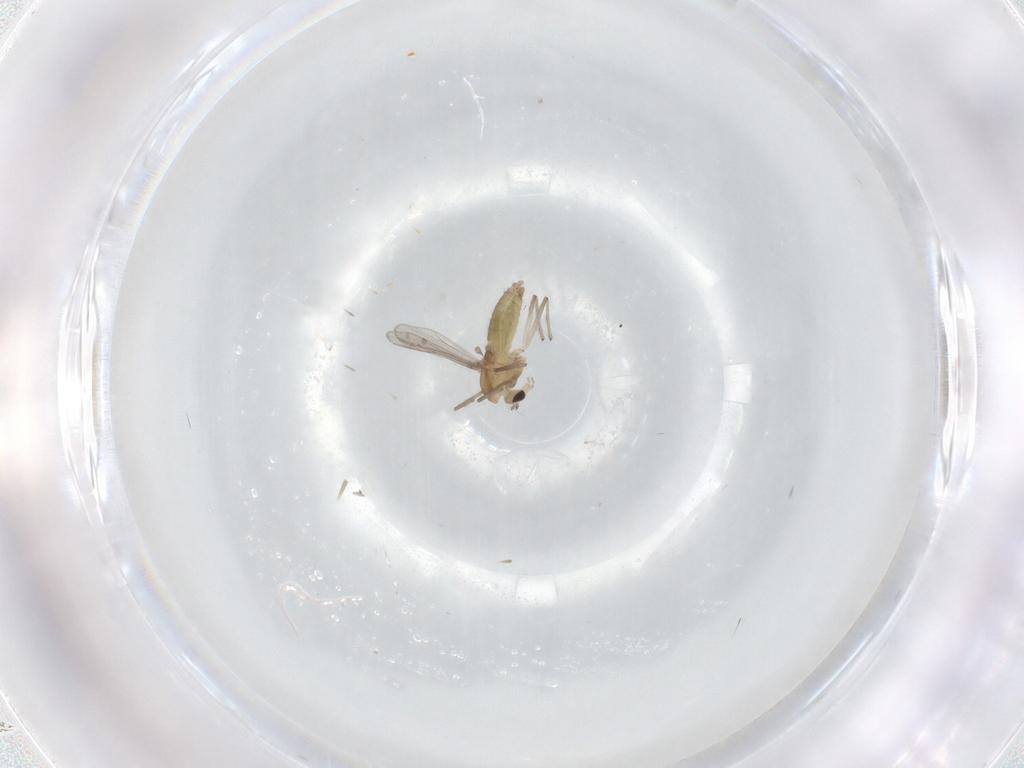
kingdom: Animalia
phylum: Arthropoda
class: Insecta
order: Diptera
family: Chironomidae
